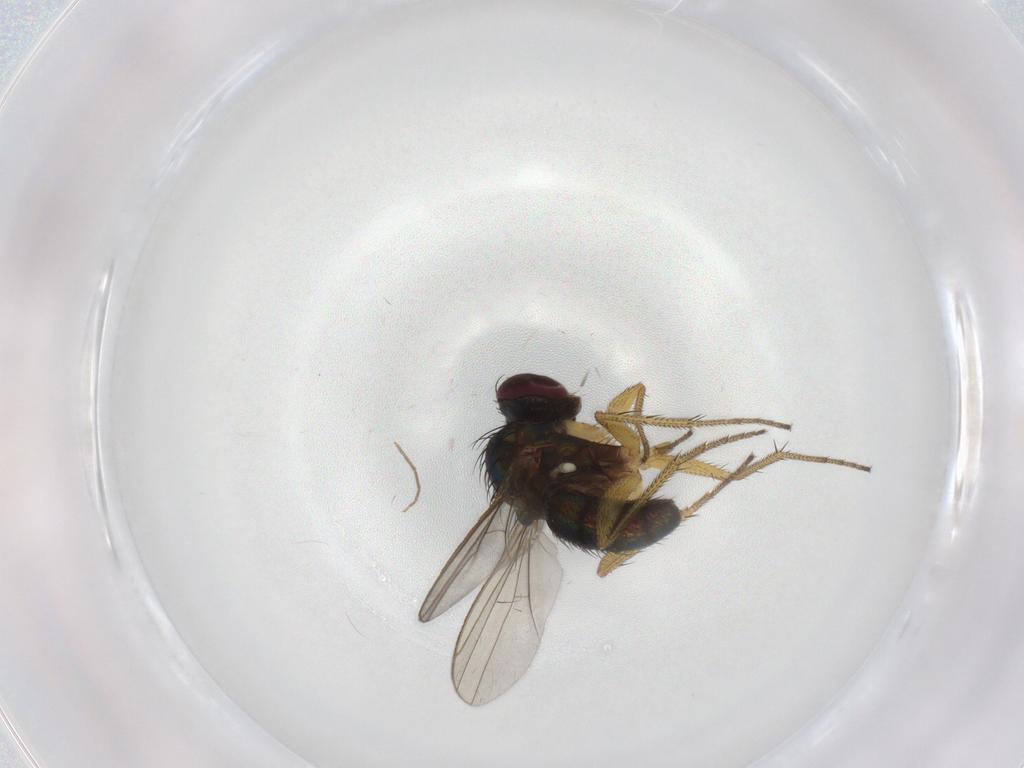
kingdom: Animalia
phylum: Arthropoda
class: Insecta
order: Diptera
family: Dolichopodidae
